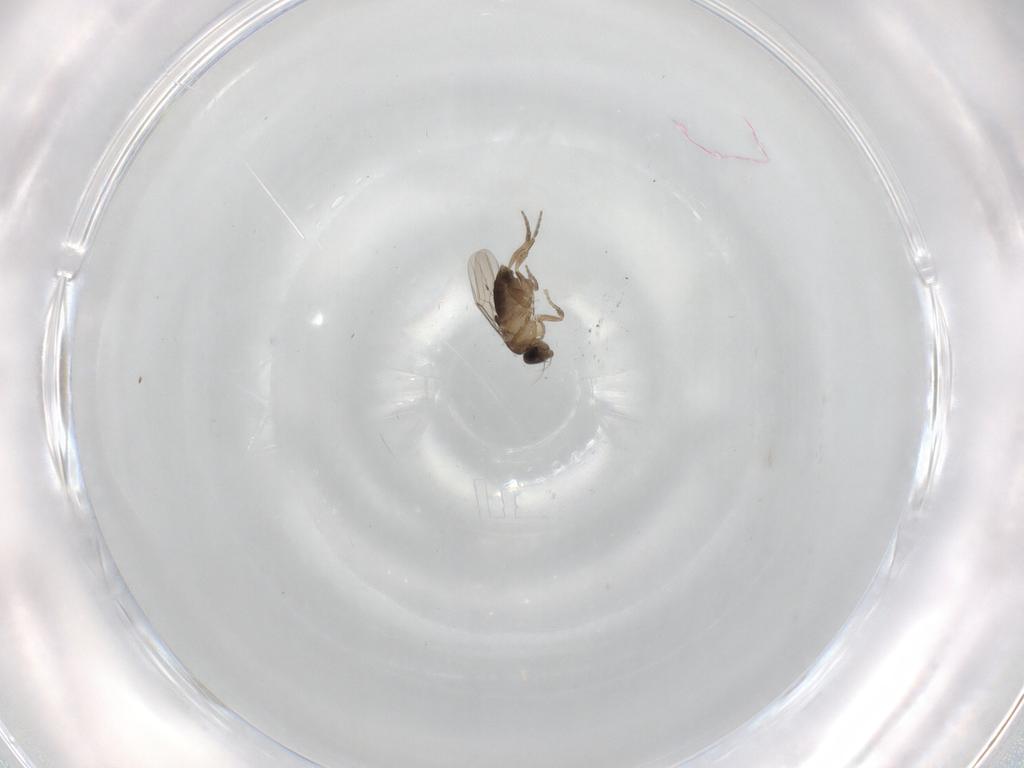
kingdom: Animalia
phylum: Arthropoda
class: Insecta
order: Diptera
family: Phoridae
